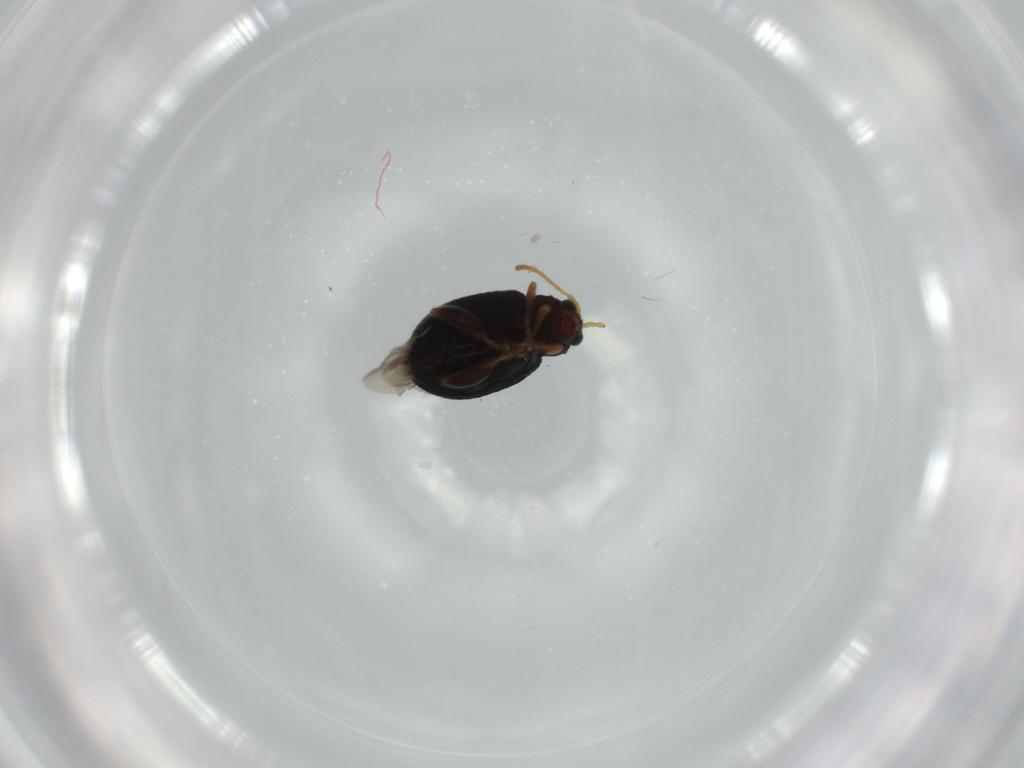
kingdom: Animalia
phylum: Arthropoda
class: Insecta
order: Coleoptera
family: Chrysomelidae
